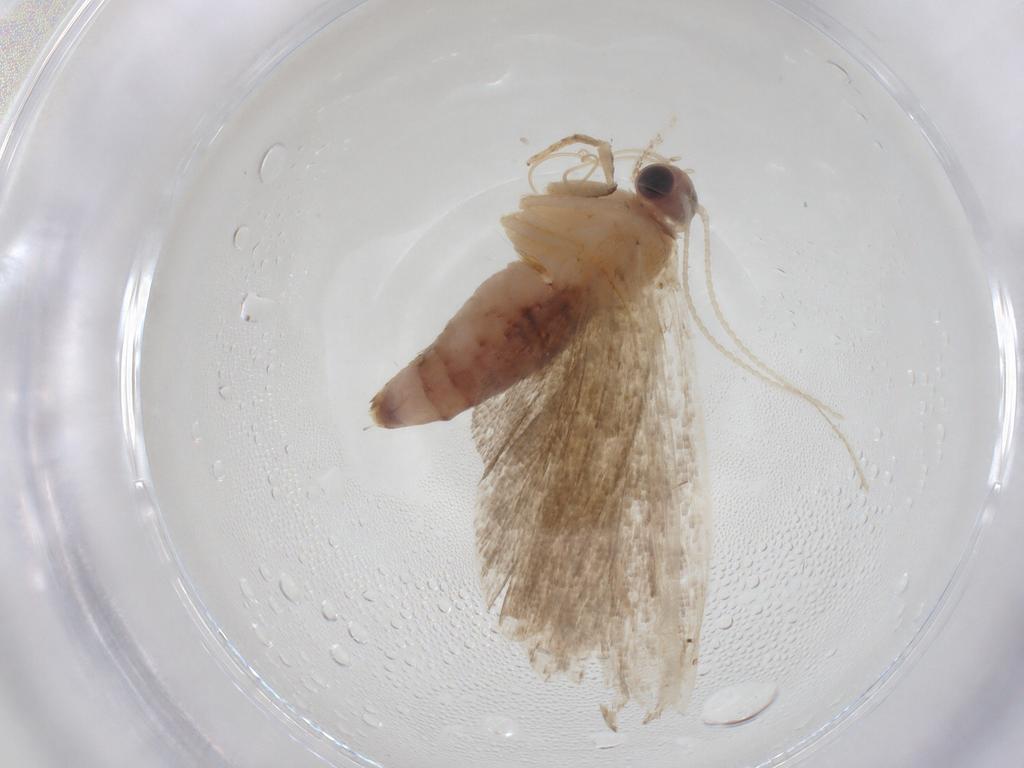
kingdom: Animalia
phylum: Arthropoda
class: Insecta
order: Lepidoptera
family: Crambidae
